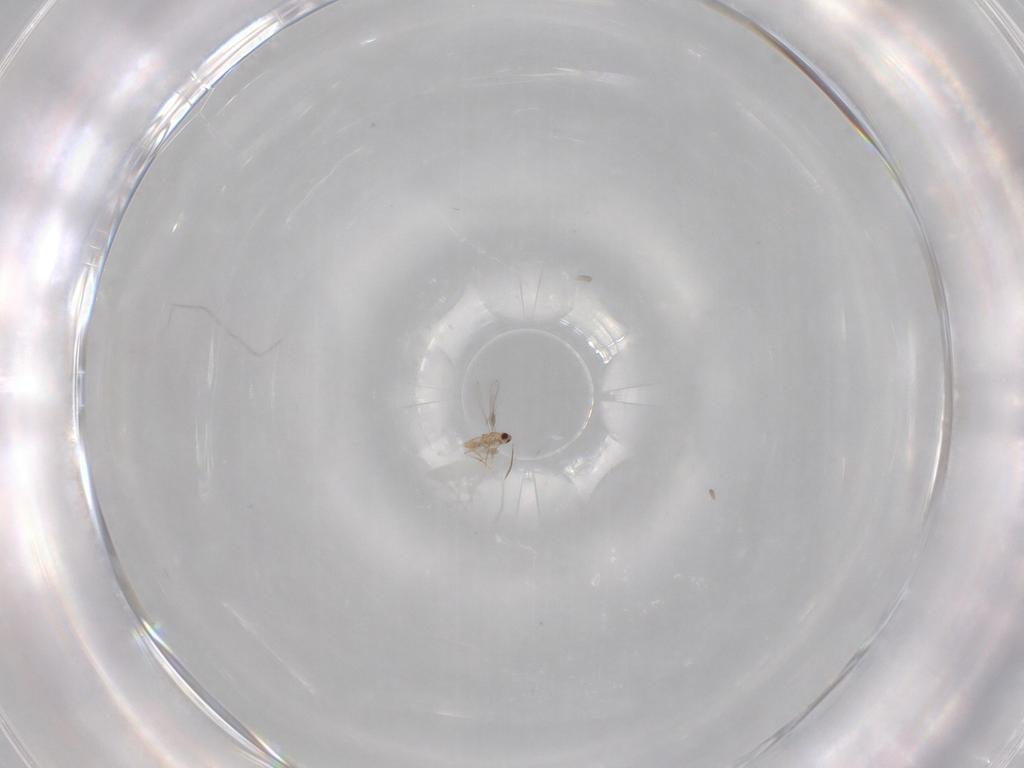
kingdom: Animalia
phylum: Arthropoda
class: Insecta
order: Hymenoptera
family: Mymaridae
